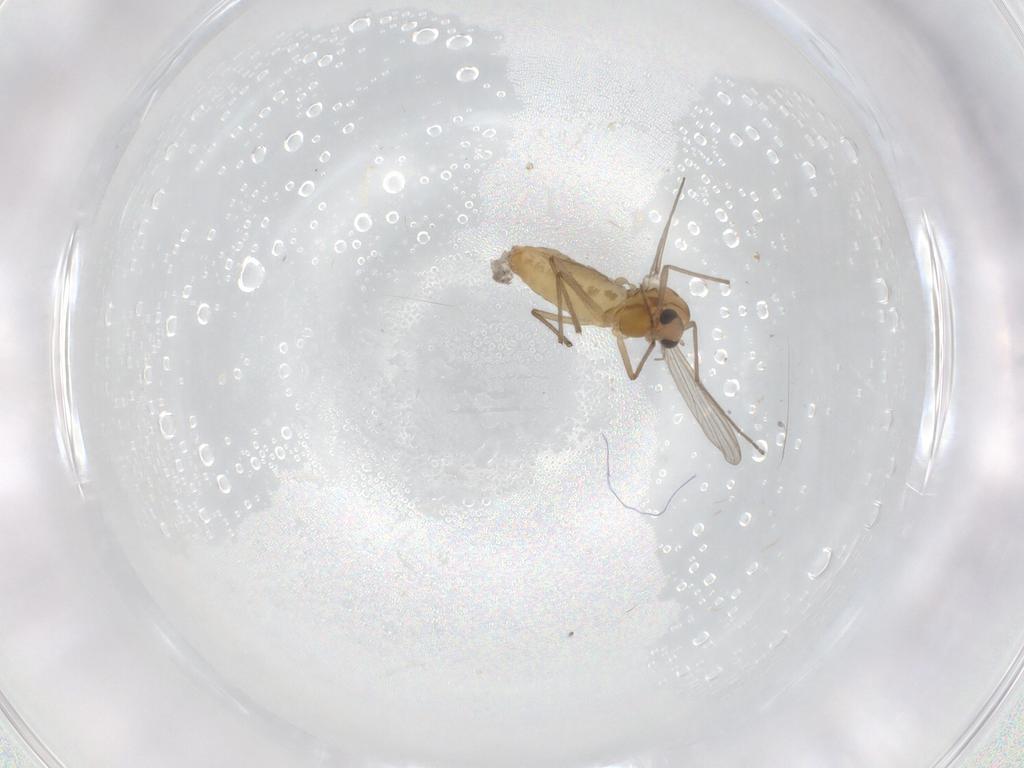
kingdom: Animalia
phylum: Arthropoda
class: Insecta
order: Diptera
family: Chironomidae
